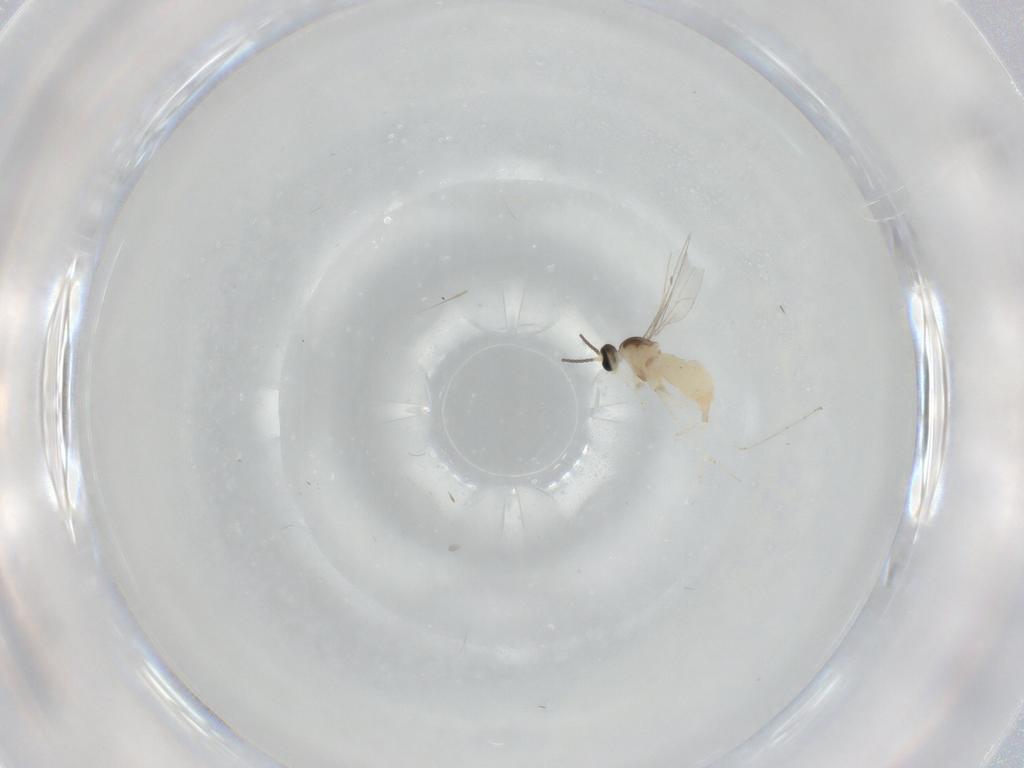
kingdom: Animalia
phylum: Arthropoda
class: Insecta
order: Diptera
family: Cecidomyiidae
